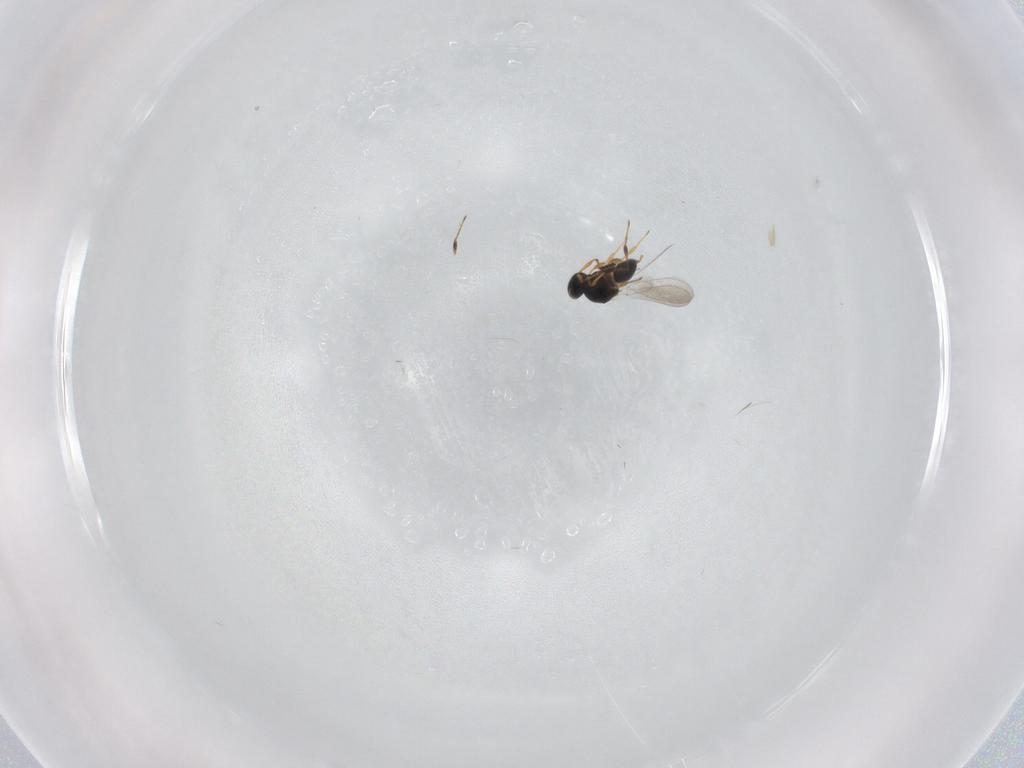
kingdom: Animalia
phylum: Arthropoda
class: Insecta
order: Hymenoptera
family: Platygastridae
